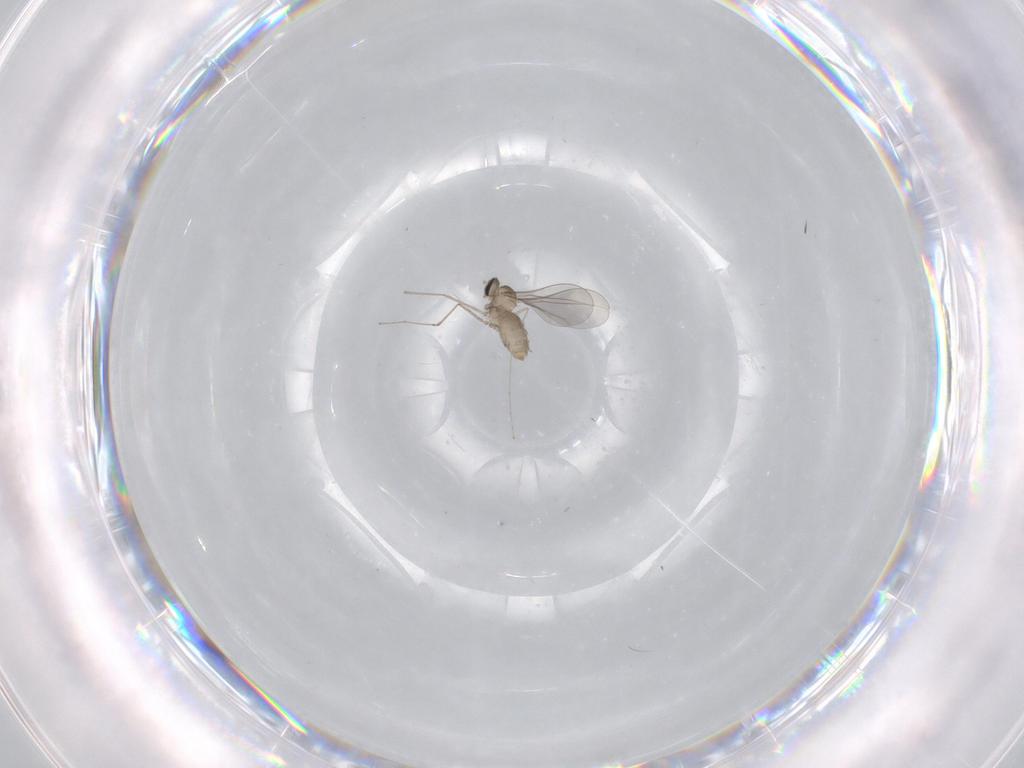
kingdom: Animalia
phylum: Arthropoda
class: Insecta
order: Diptera
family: Cecidomyiidae
